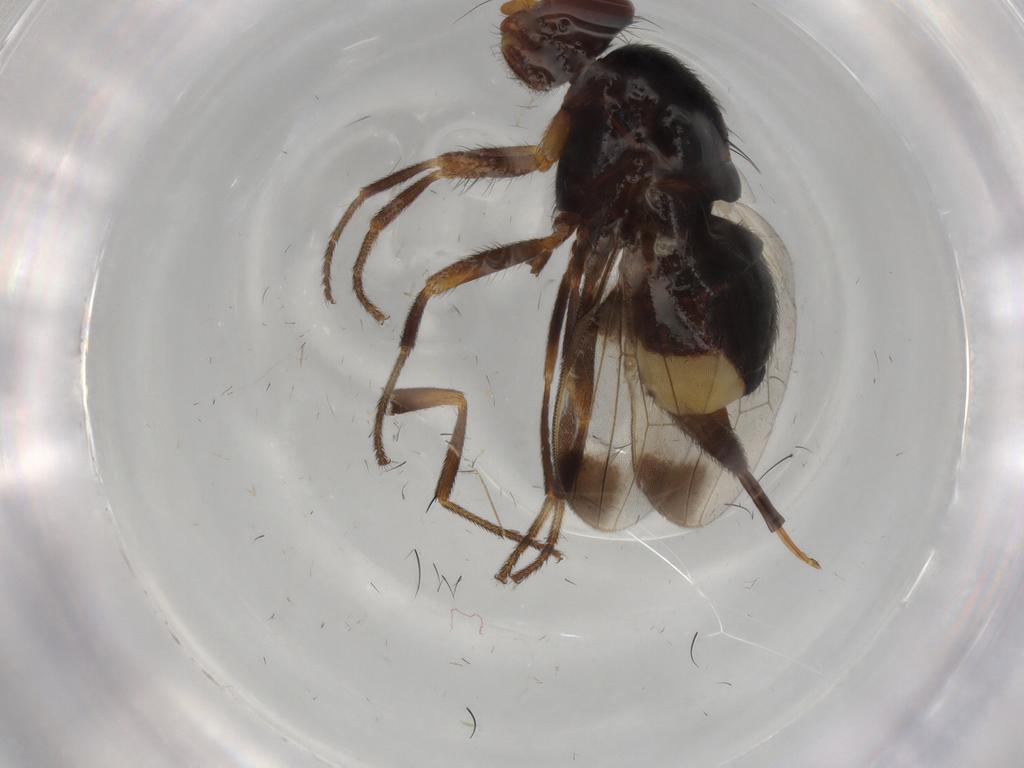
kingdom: Animalia
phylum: Arthropoda
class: Insecta
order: Diptera
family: Ulidiidae
